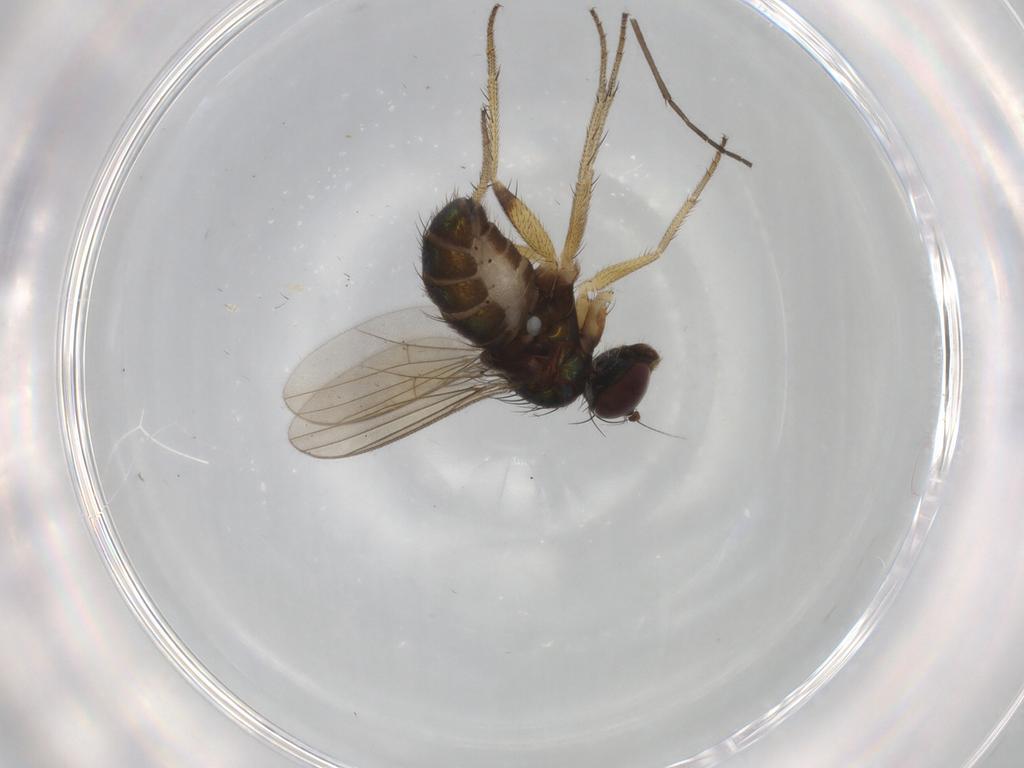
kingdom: Animalia
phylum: Arthropoda
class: Insecta
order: Diptera
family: Dolichopodidae
